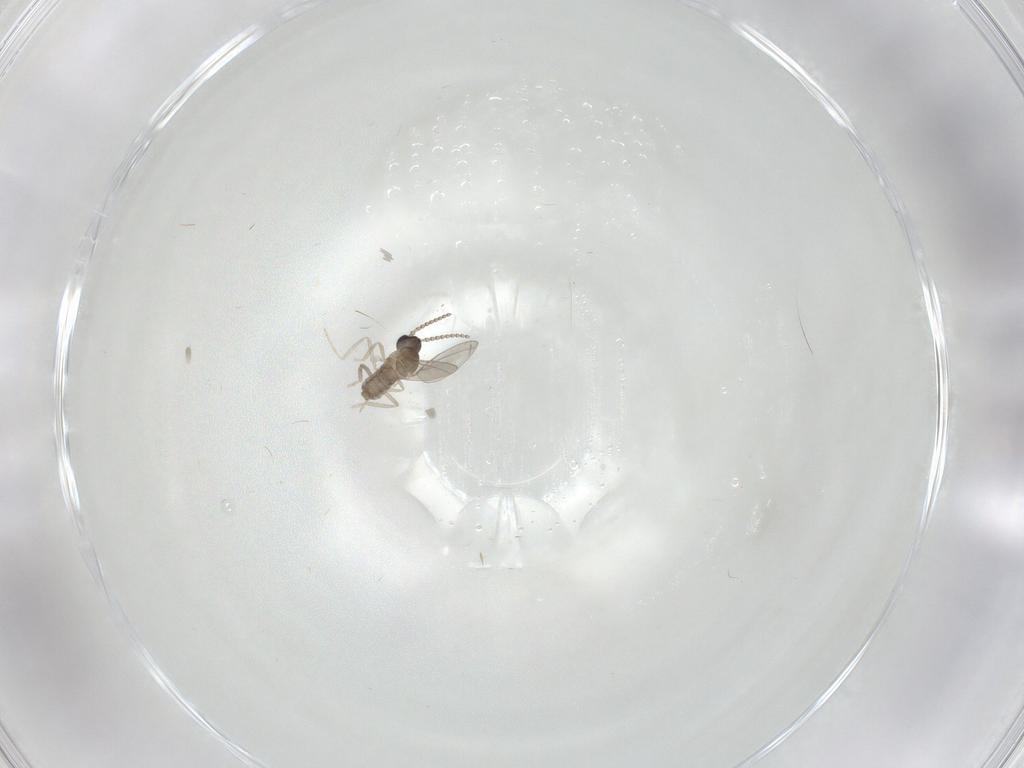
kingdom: Animalia
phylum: Arthropoda
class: Insecta
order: Diptera
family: Cecidomyiidae
